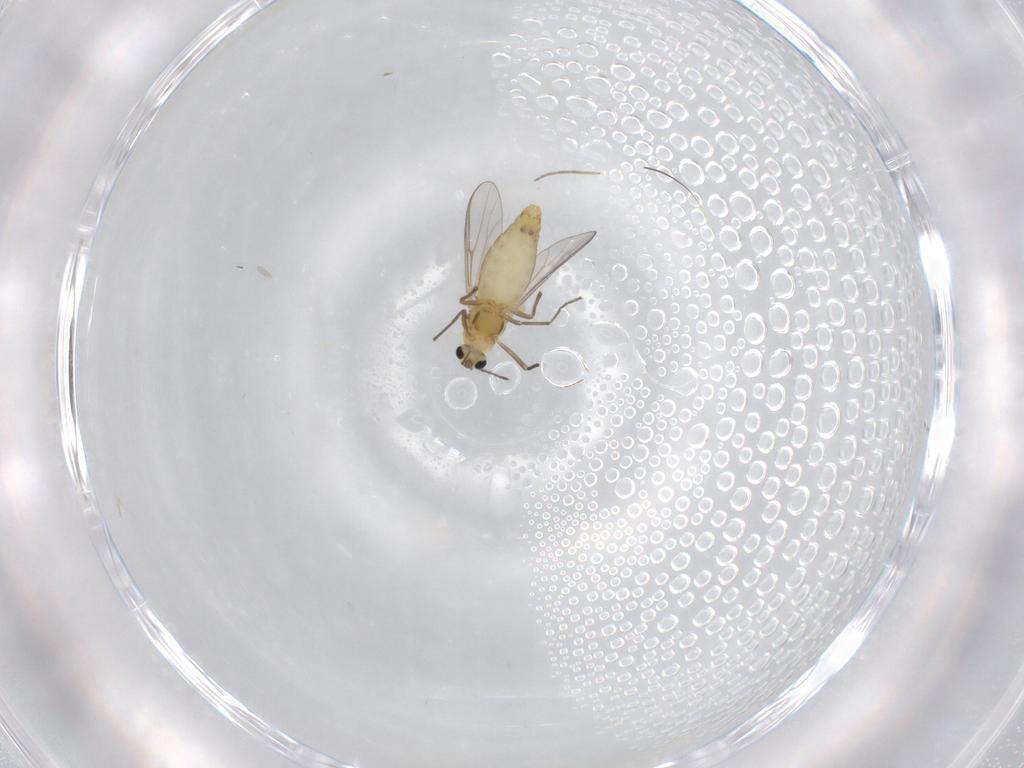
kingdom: Animalia
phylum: Arthropoda
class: Insecta
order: Diptera
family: Chironomidae
